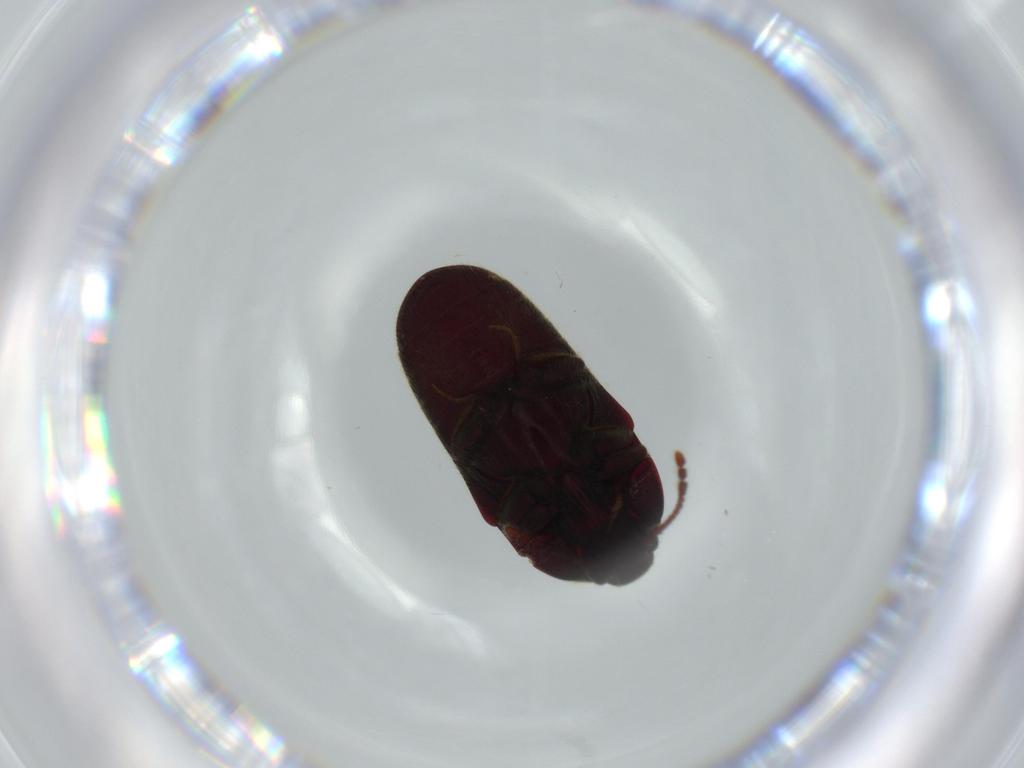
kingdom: Animalia
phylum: Arthropoda
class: Insecta
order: Coleoptera
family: Throscidae
